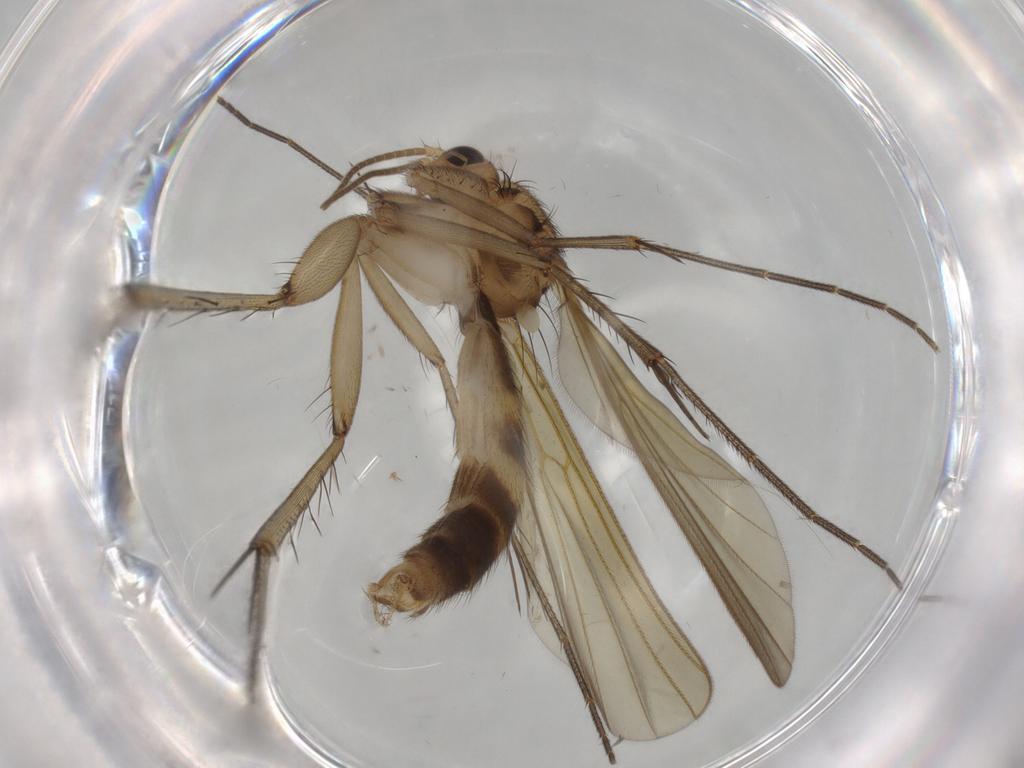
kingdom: Animalia
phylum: Arthropoda
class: Insecta
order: Diptera
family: Mycetophilidae
